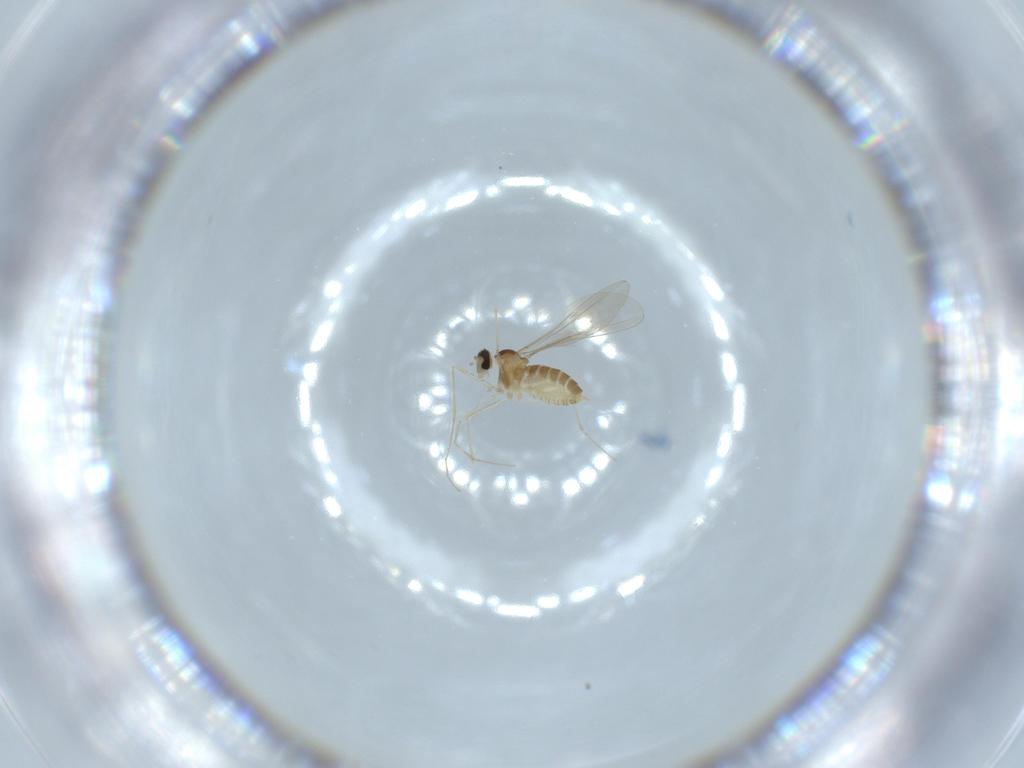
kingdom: Animalia
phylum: Arthropoda
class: Insecta
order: Diptera
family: Cecidomyiidae
